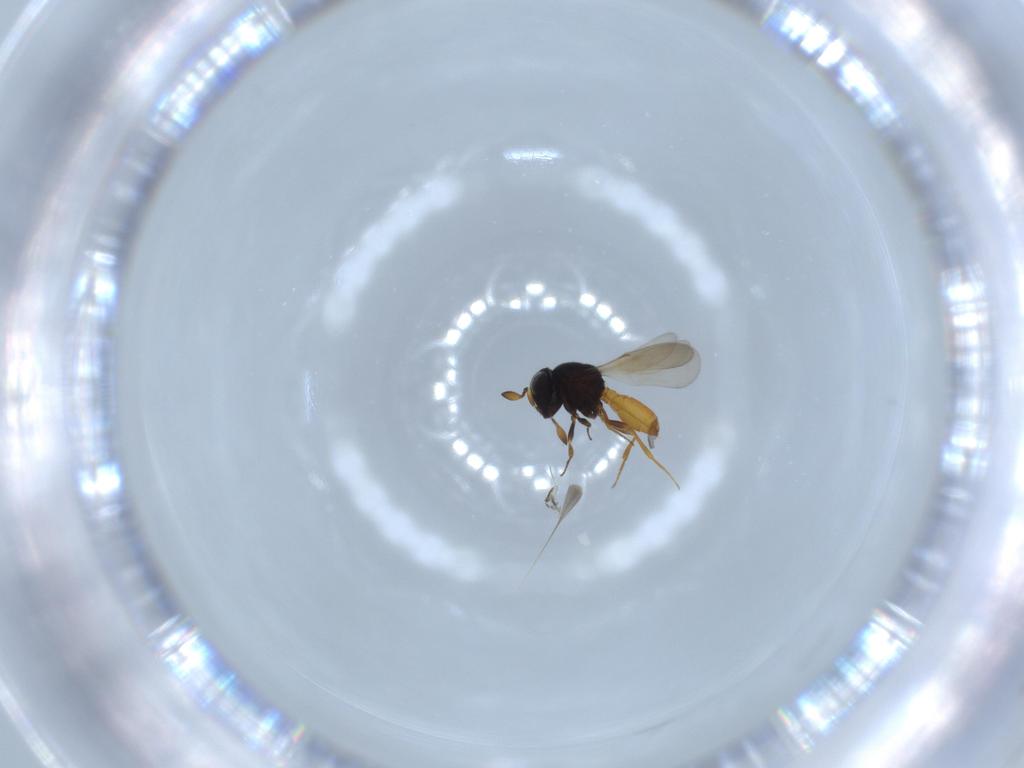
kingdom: Animalia
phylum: Arthropoda
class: Insecta
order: Hymenoptera
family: Scelionidae
